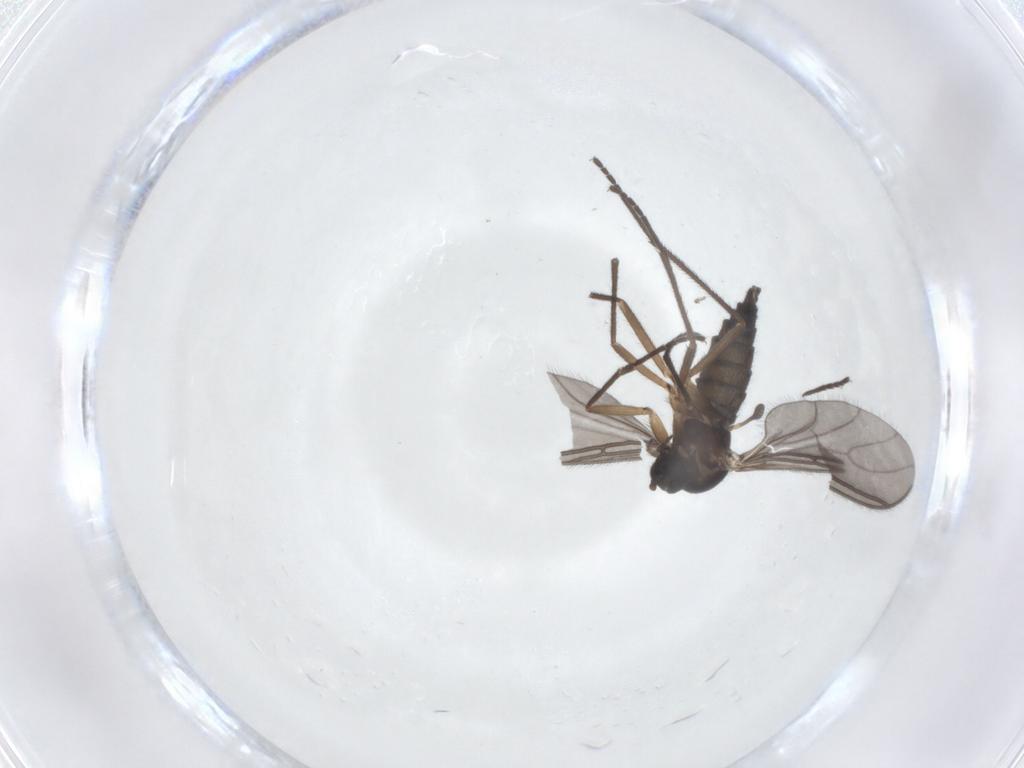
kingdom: Animalia
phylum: Arthropoda
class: Insecta
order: Diptera
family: Sciaridae
